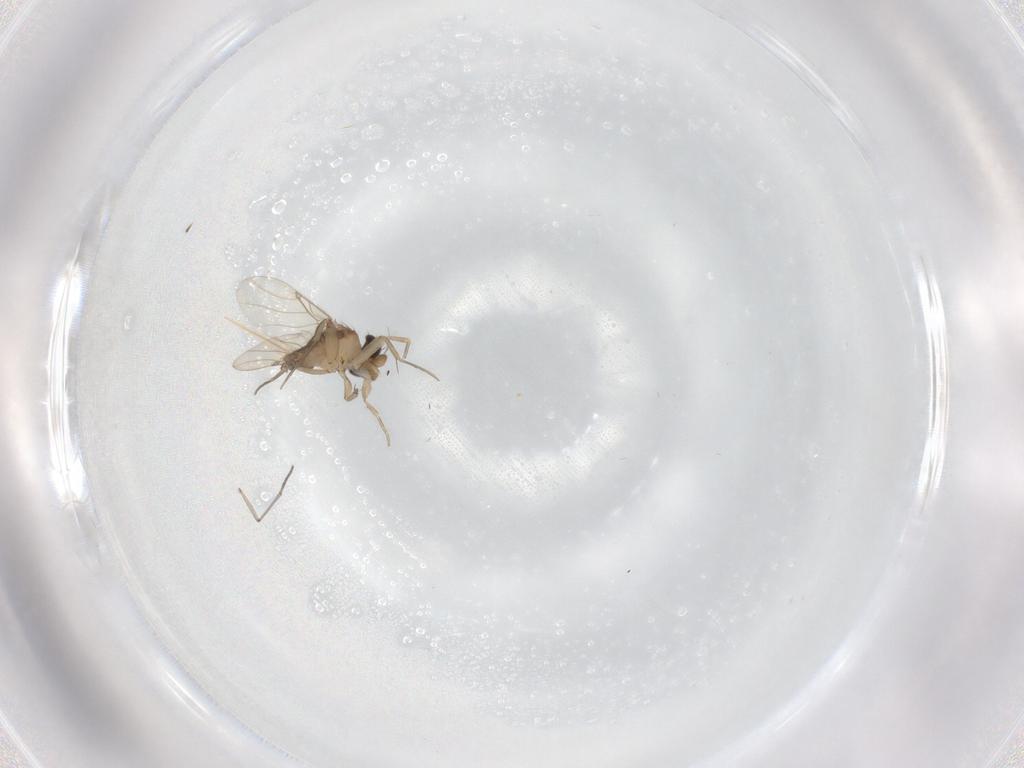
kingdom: Animalia
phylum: Arthropoda
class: Insecta
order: Diptera
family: Phoridae
